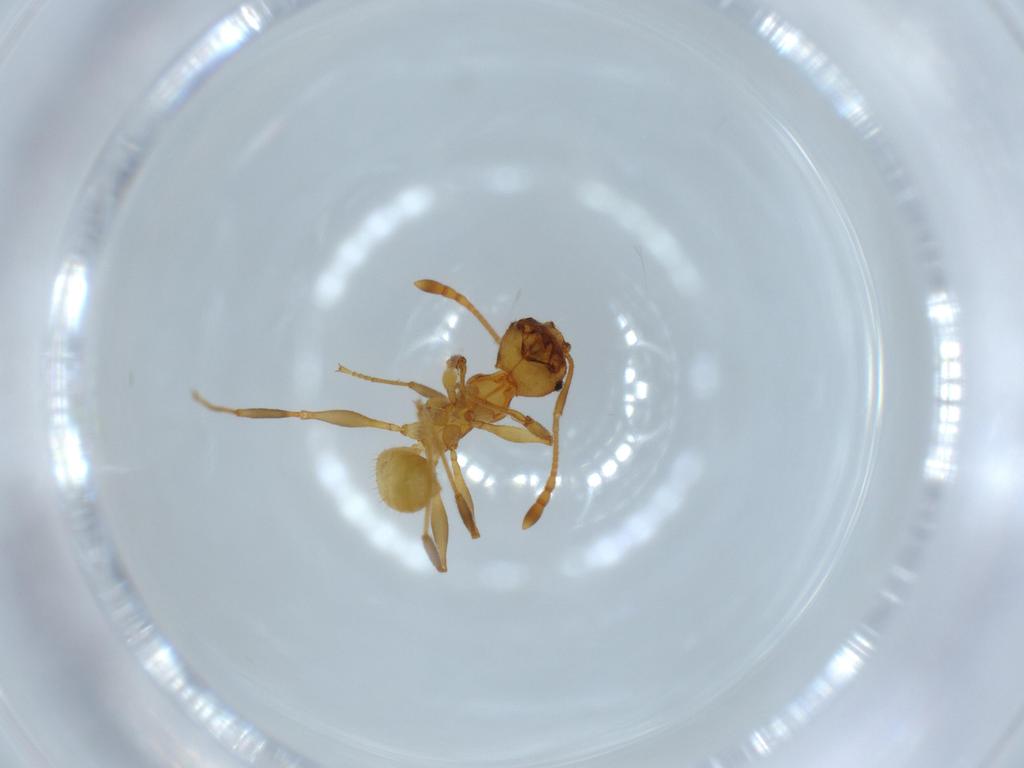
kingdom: Animalia
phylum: Arthropoda
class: Insecta
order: Hymenoptera
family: Formicidae
